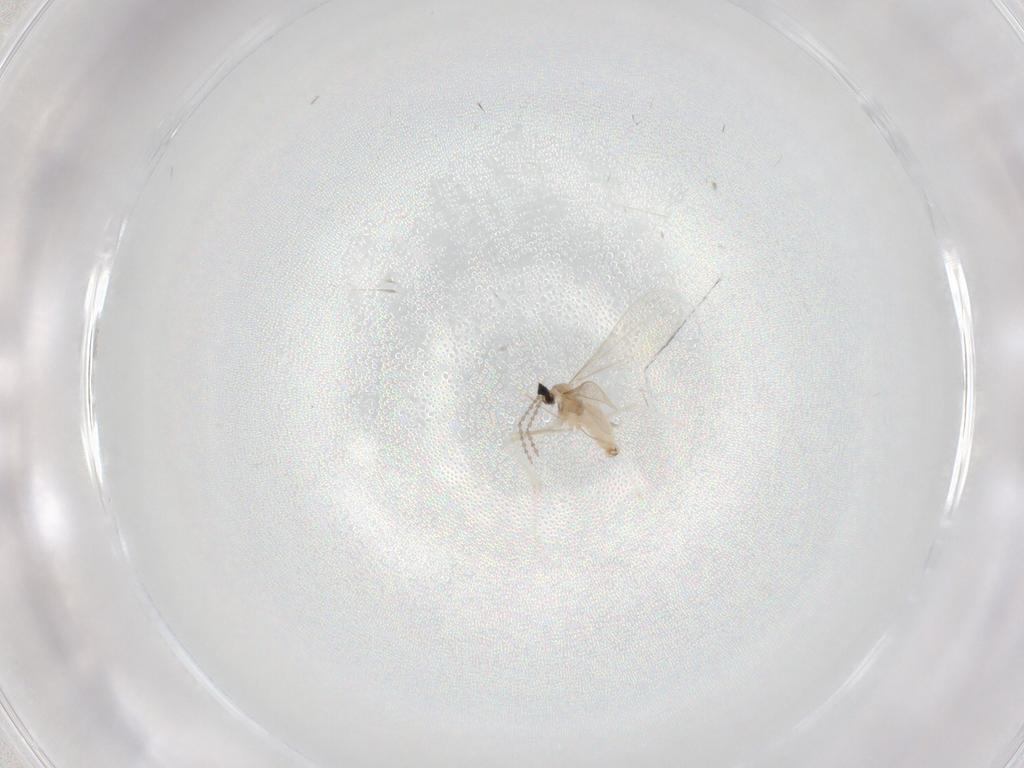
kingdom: Animalia
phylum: Arthropoda
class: Insecta
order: Diptera
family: Cecidomyiidae
